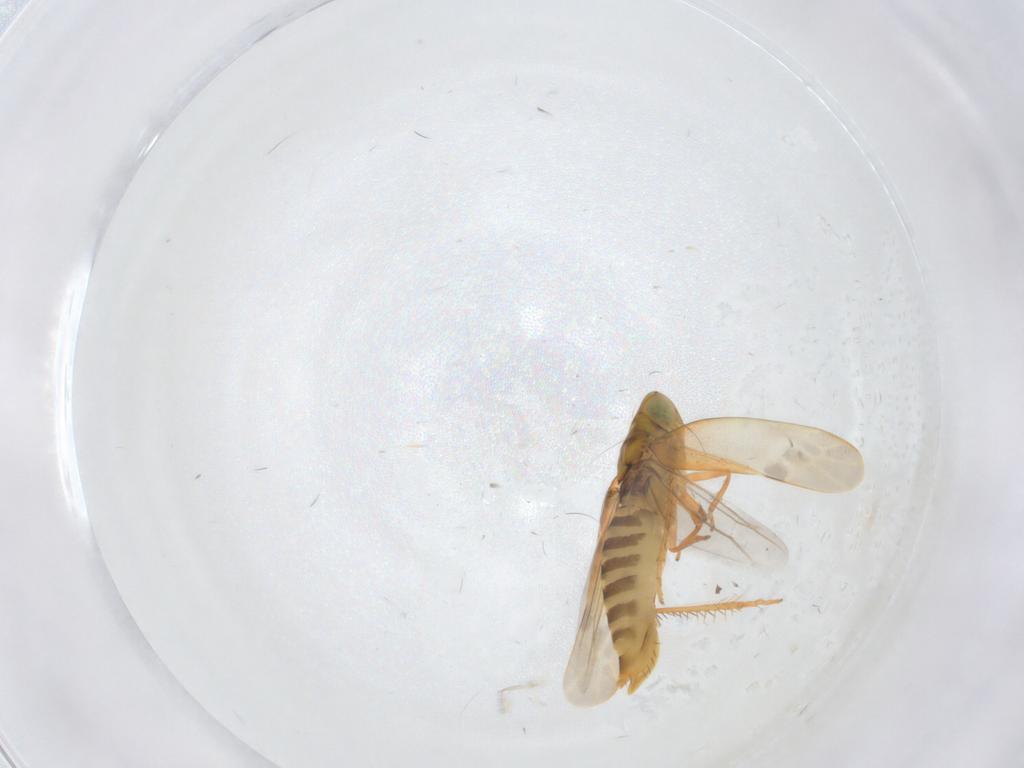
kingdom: Animalia
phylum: Arthropoda
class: Insecta
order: Hemiptera
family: Cicadellidae
